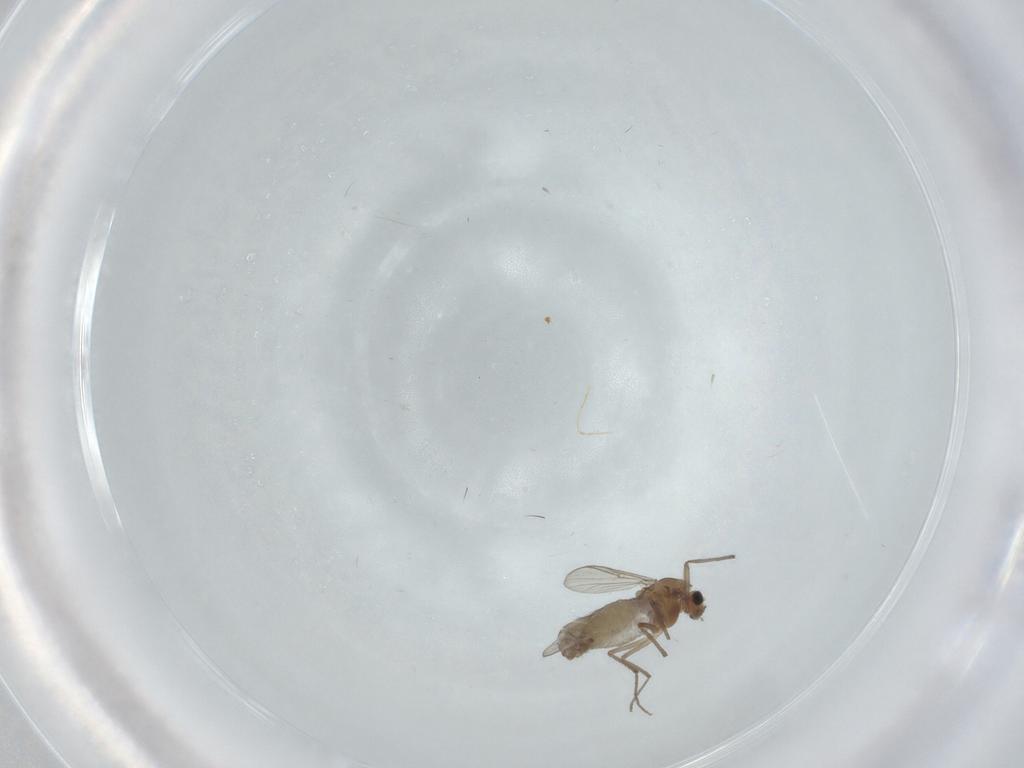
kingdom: Animalia
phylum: Arthropoda
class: Insecta
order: Diptera
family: Chironomidae
